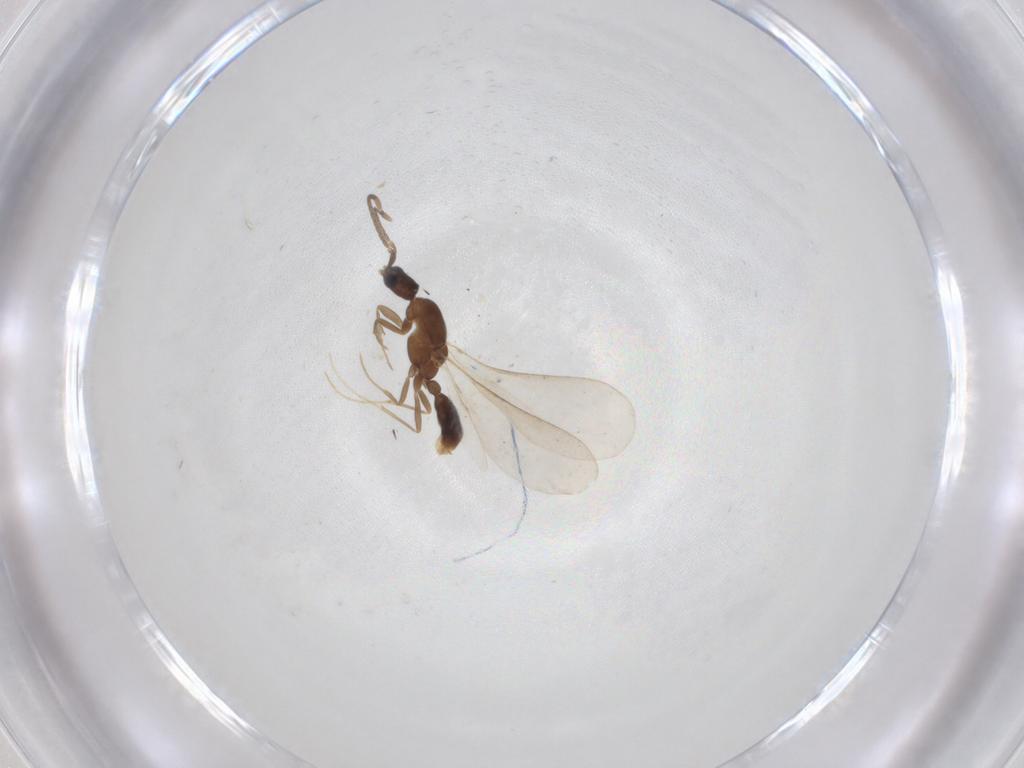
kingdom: Animalia
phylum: Arthropoda
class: Insecta
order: Hymenoptera
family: Formicidae
